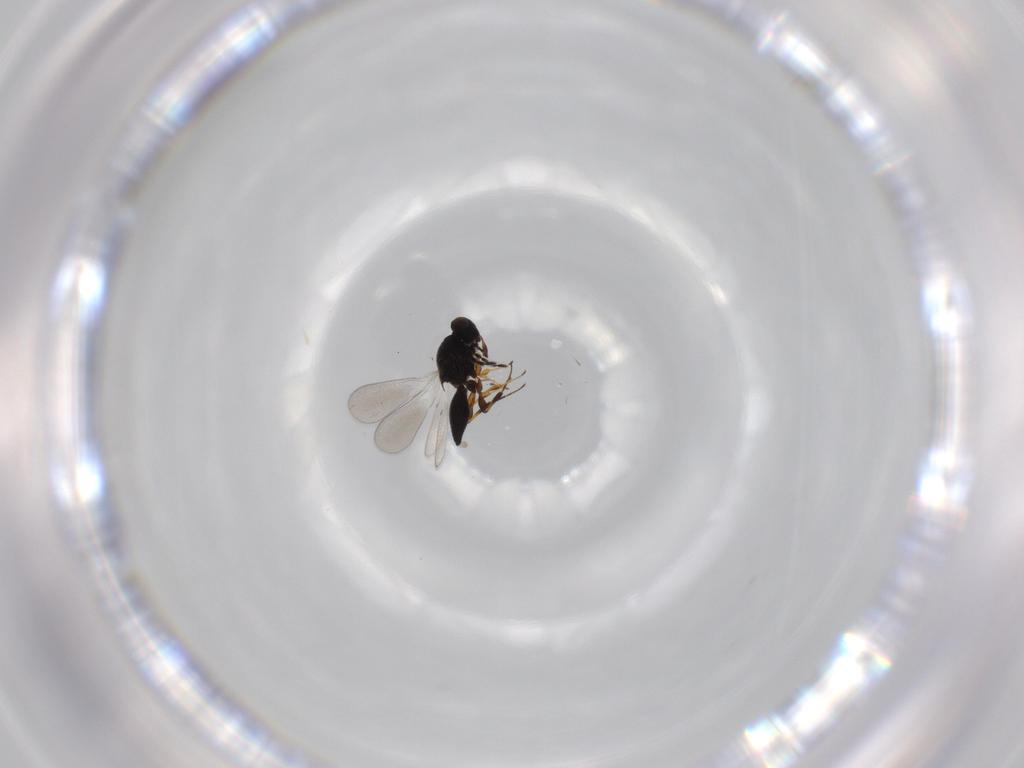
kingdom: Animalia
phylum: Arthropoda
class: Insecta
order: Hymenoptera
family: Platygastridae
